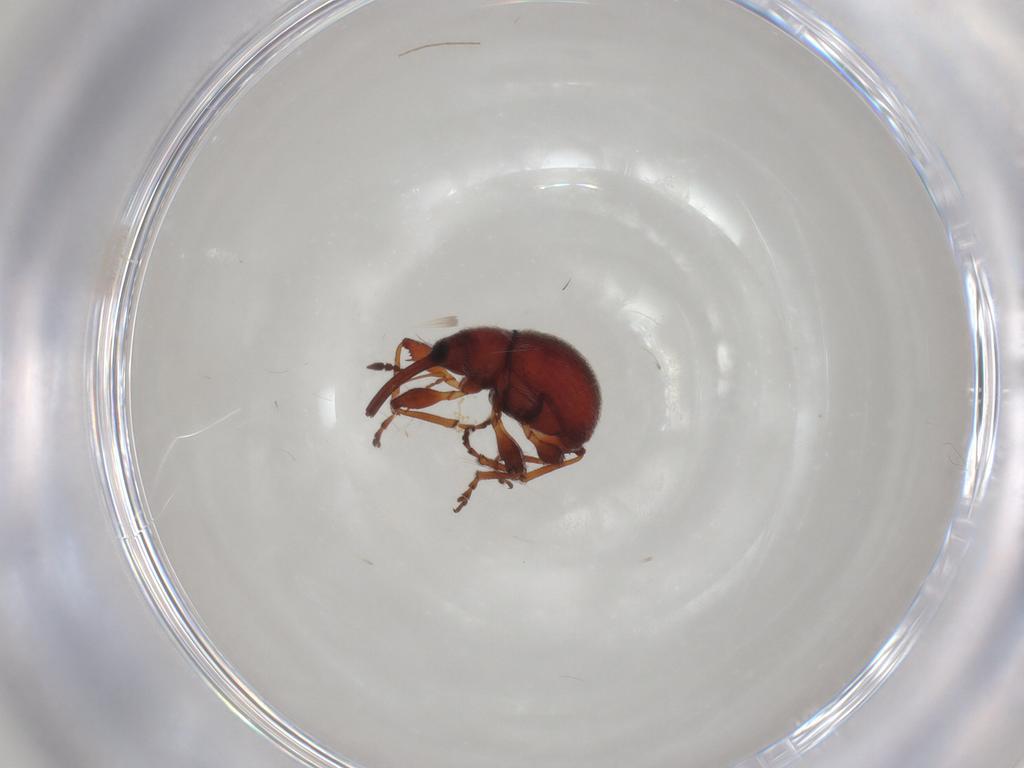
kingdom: Animalia
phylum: Arthropoda
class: Insecta
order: Coleoptera
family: Brentidae
